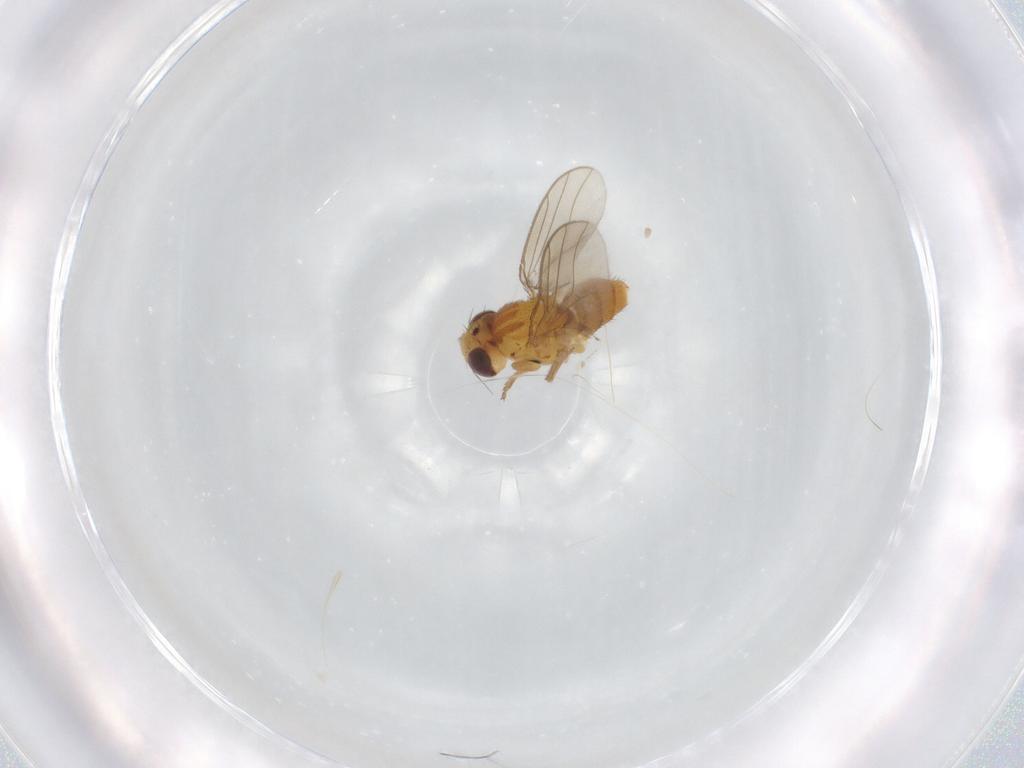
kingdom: Animalia
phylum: Arthropoda
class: Insecta
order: Diptera
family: Chloropidae
